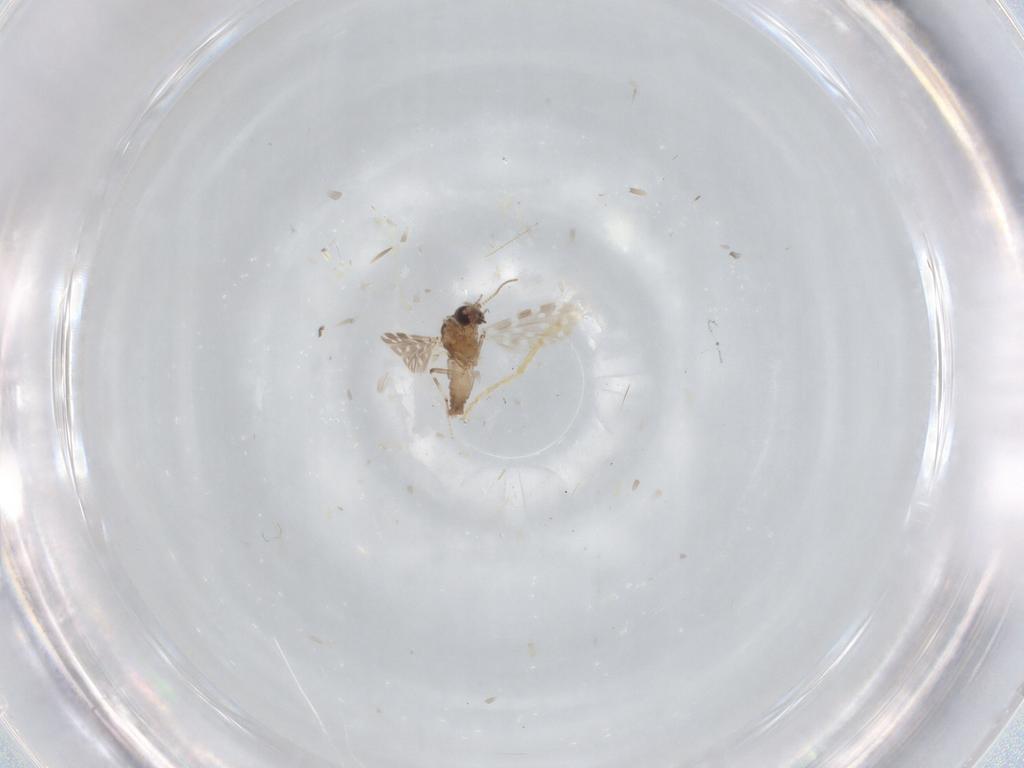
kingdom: Animalia
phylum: Arthropoda
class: Insecta
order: Diptera
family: Ceratopogonidae
